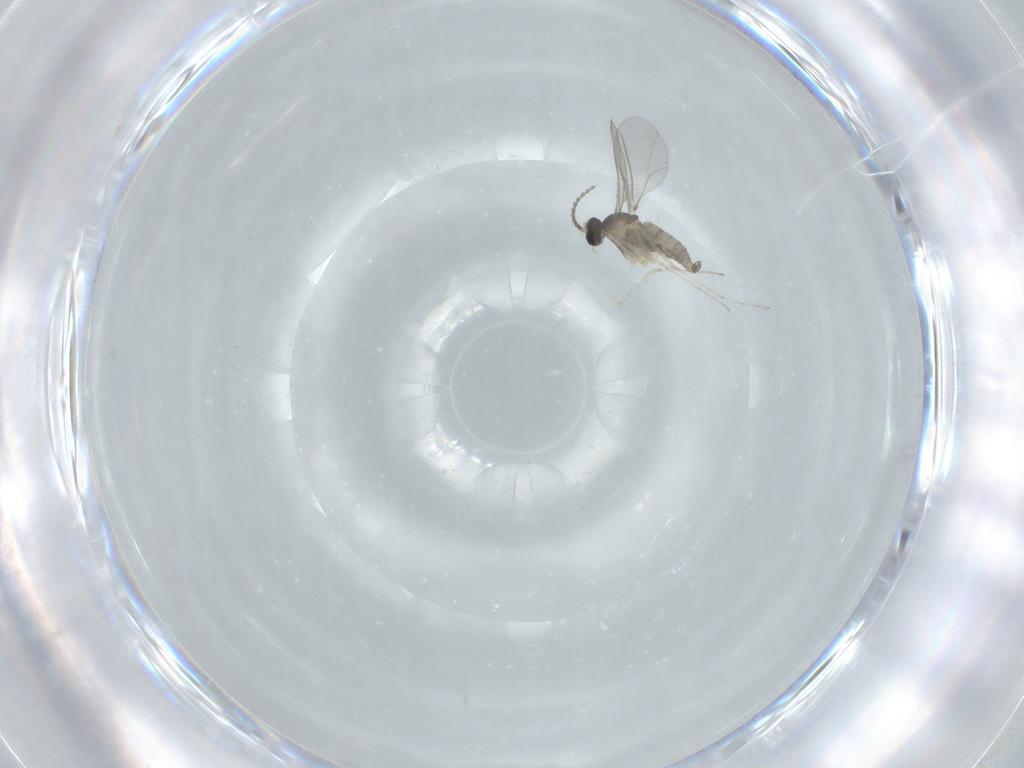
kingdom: Animalia
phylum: Arthropoda
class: Insecta
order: Diptera
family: Cecidomyiidae
